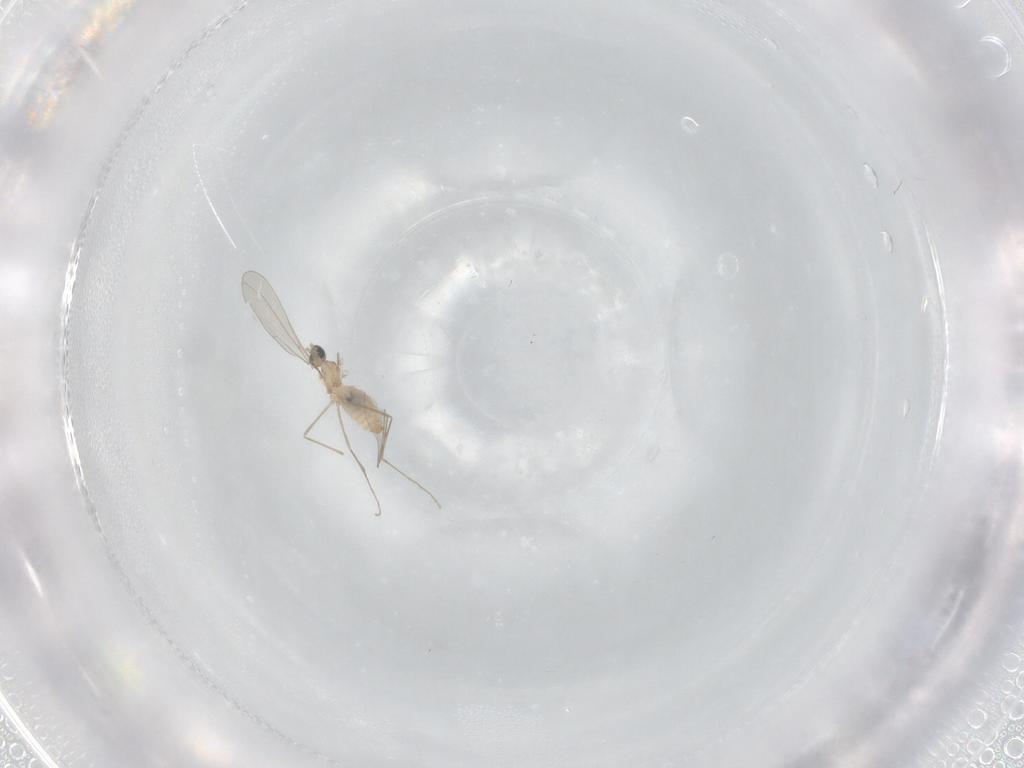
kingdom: Animalia
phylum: Arthropoda
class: Insecta
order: Diptera
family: Cecidomyiidae
